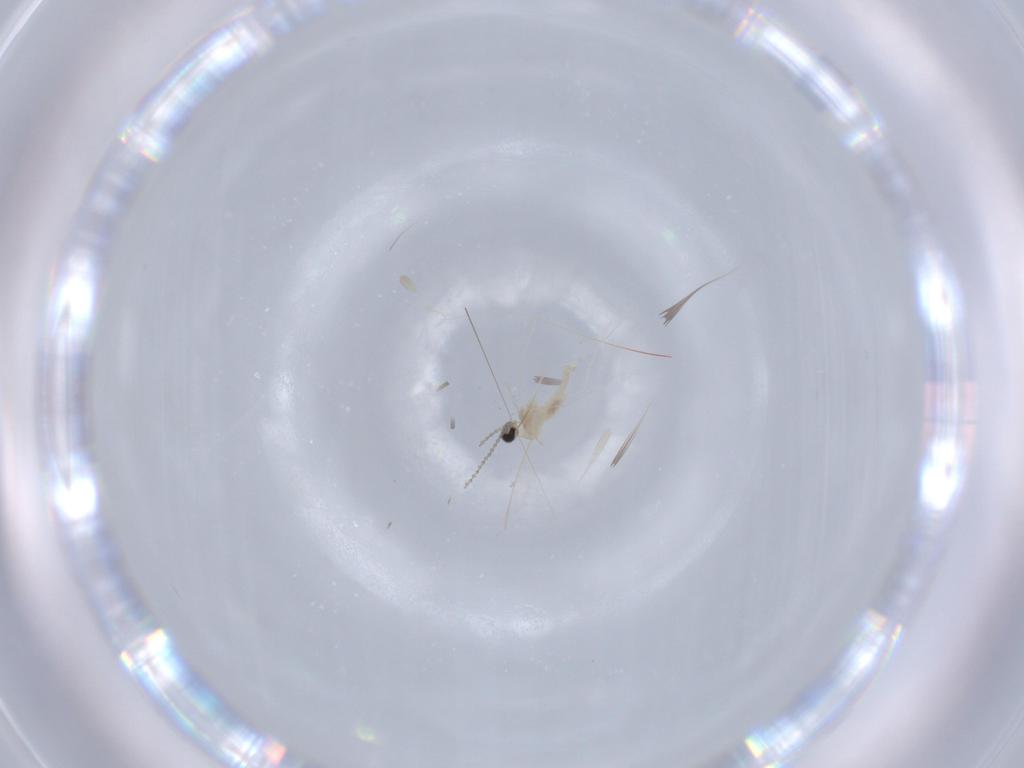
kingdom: Animalia
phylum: Arthropoda
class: Insecta
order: Diptera
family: Cecidomyiidae
